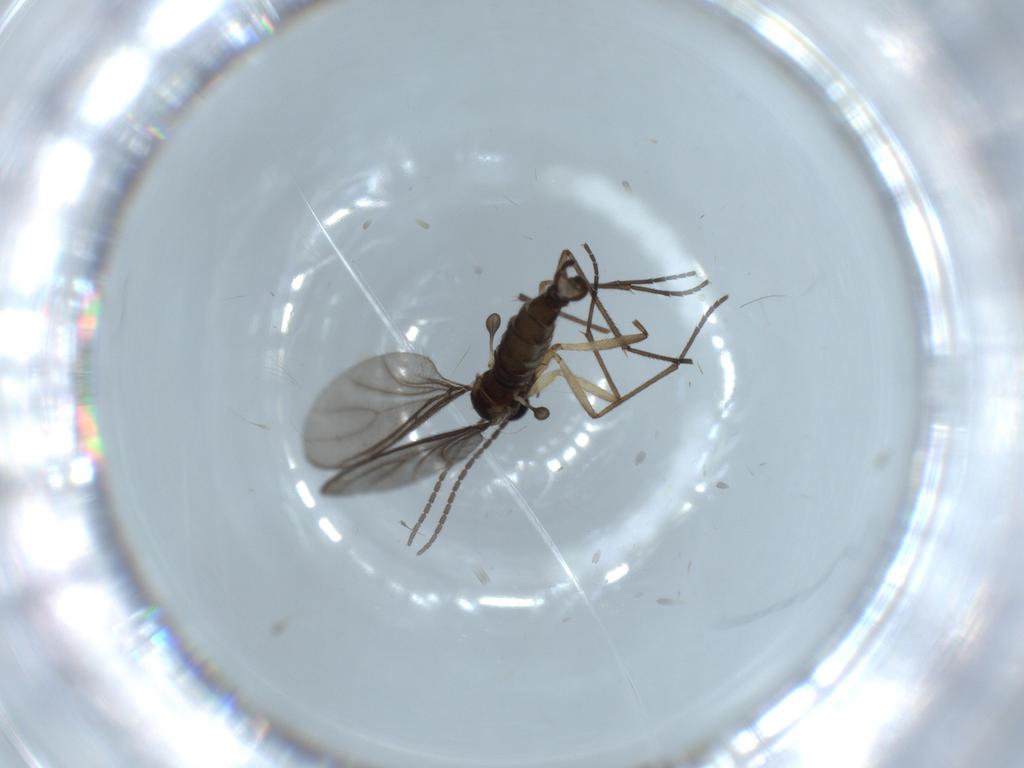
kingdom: Animalia
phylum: Arthropoda
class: Insecta
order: Diptera
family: Sciaridae
